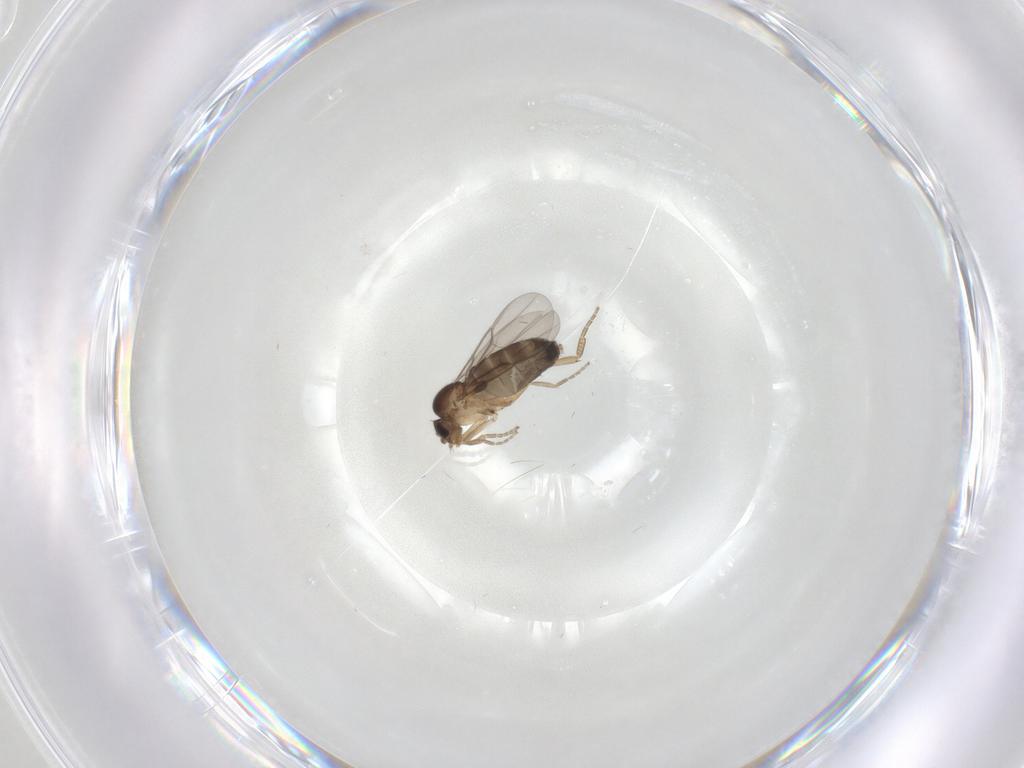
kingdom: Animalia
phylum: Arthropoda
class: Insecta
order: Diptera
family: Phoridae
